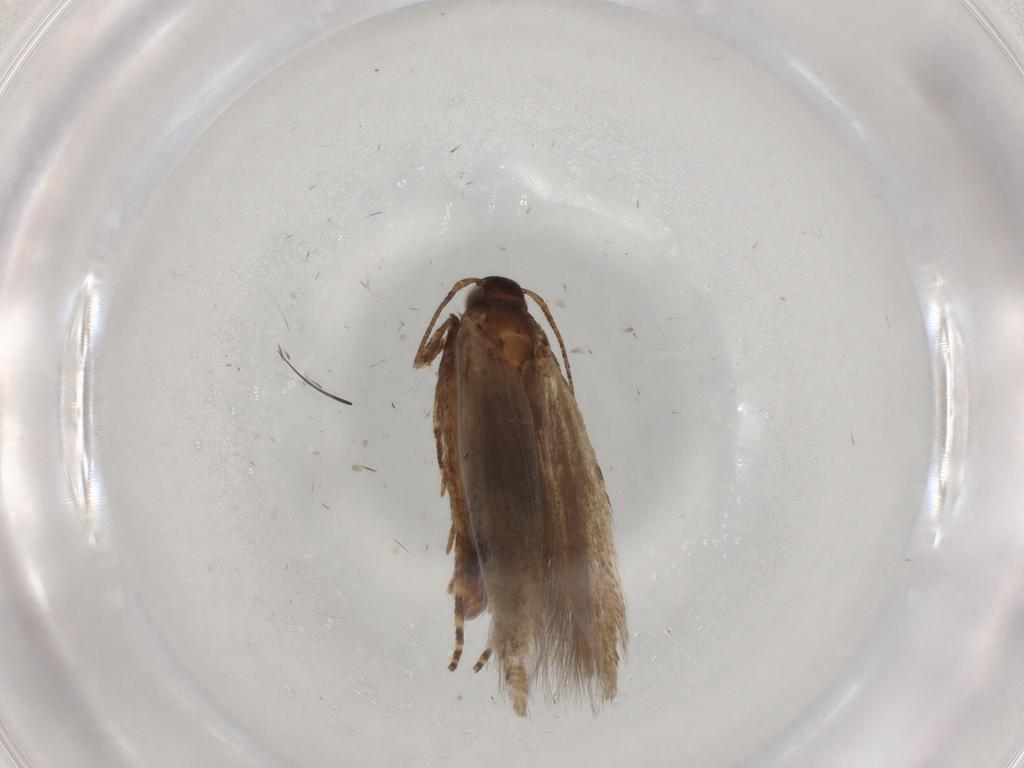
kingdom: Animalia
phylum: Arthropoda
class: Insecta
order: Lepidoptera
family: Gelechiidae
